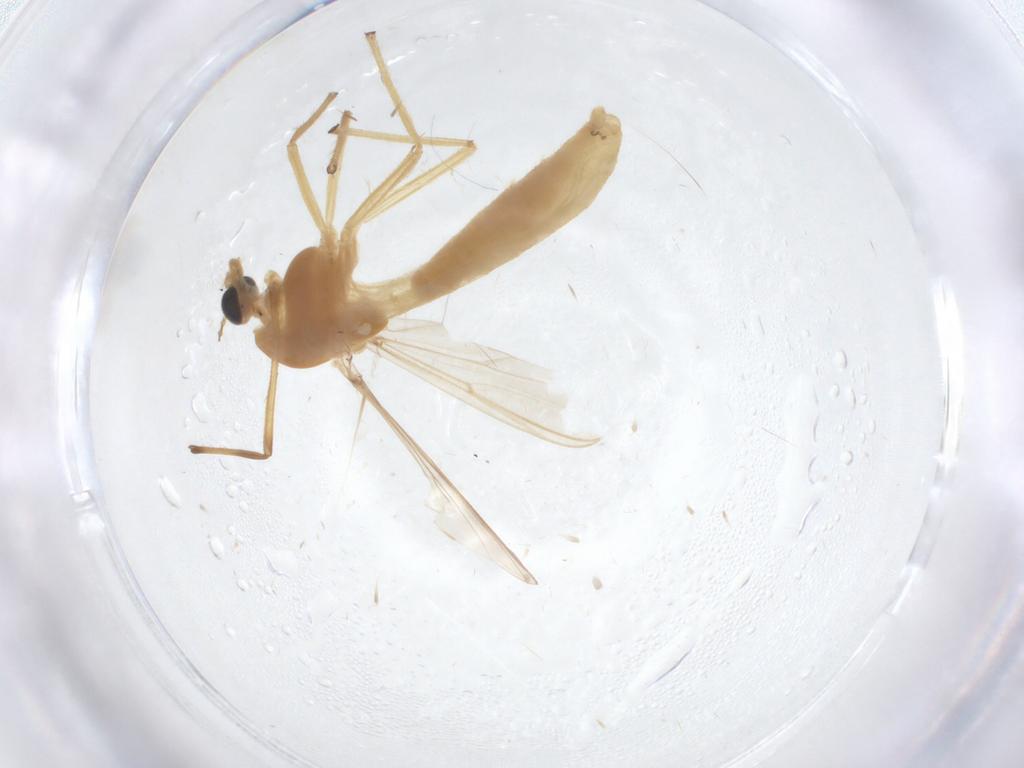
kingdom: Animalia
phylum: Arthropoda
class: Insecta
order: Diptera
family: Chironomidae
